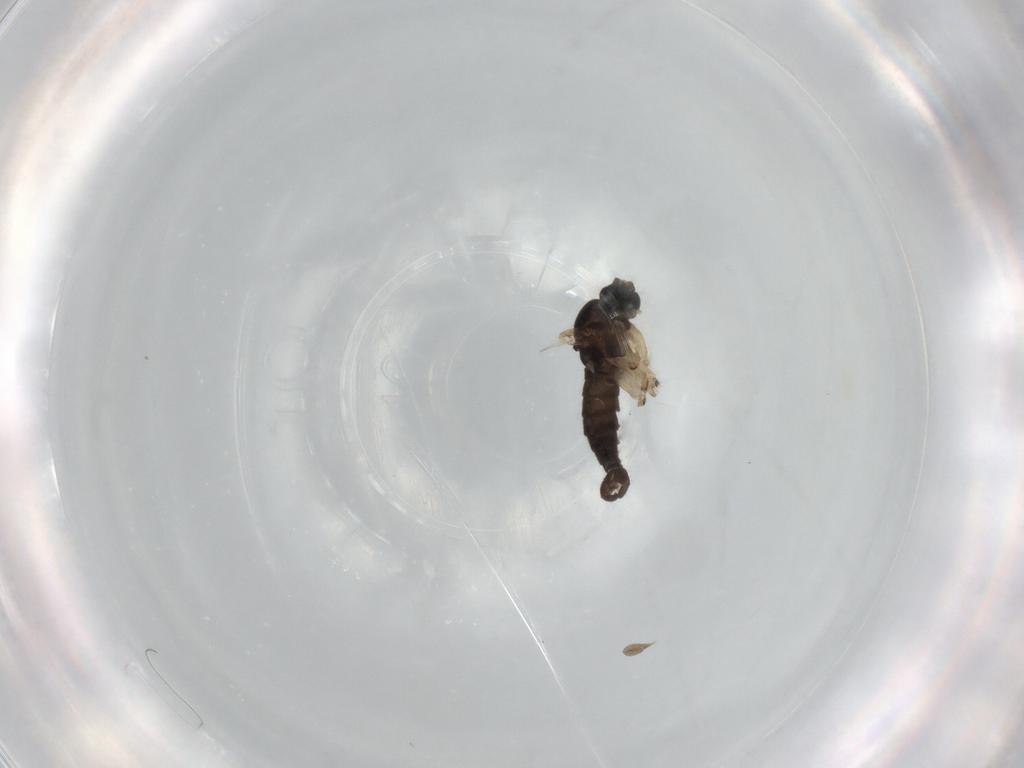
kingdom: Animalia
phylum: Arthropoda
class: Insecta
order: Diptera
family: Sciaridae
